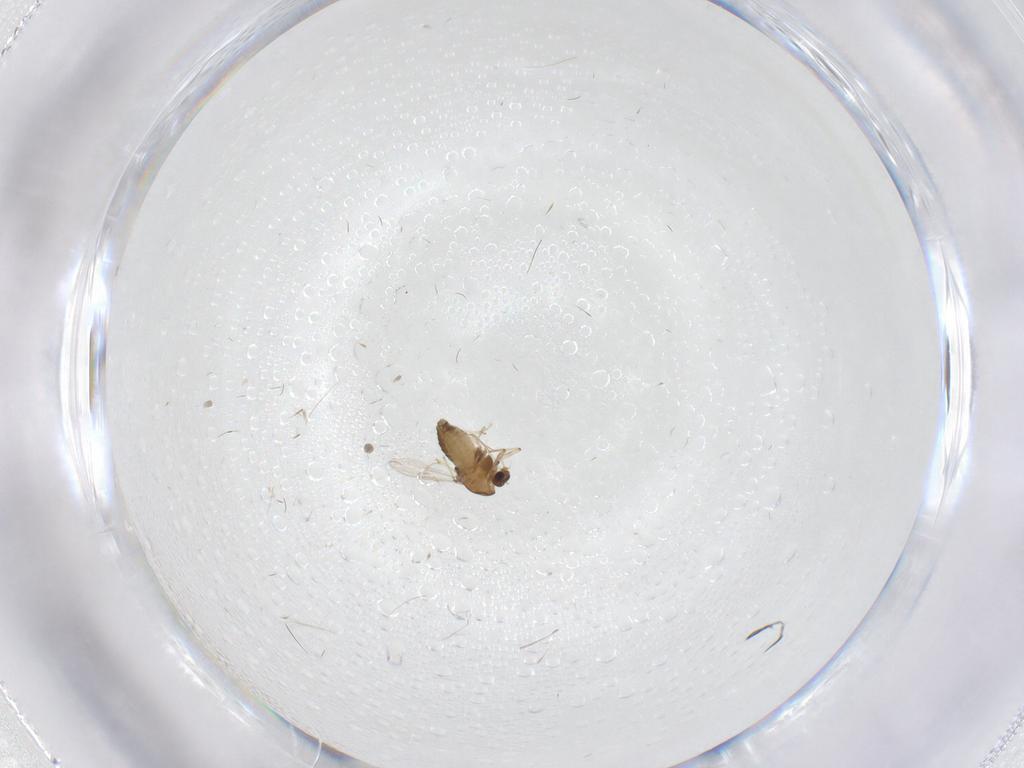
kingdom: Animalia
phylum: Arthropoda
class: Insecta
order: Diptera
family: Chironomidae
